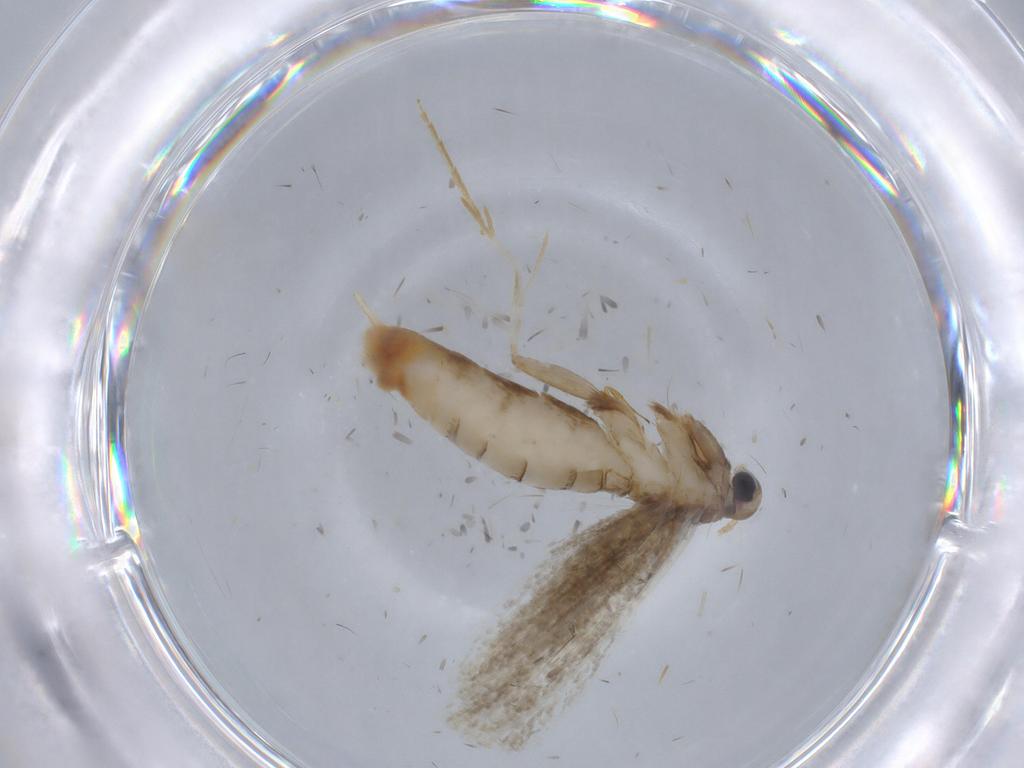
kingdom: Animalia
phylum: Arthropoda
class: Insecta
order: Lepidoptera
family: Coleophoridae
